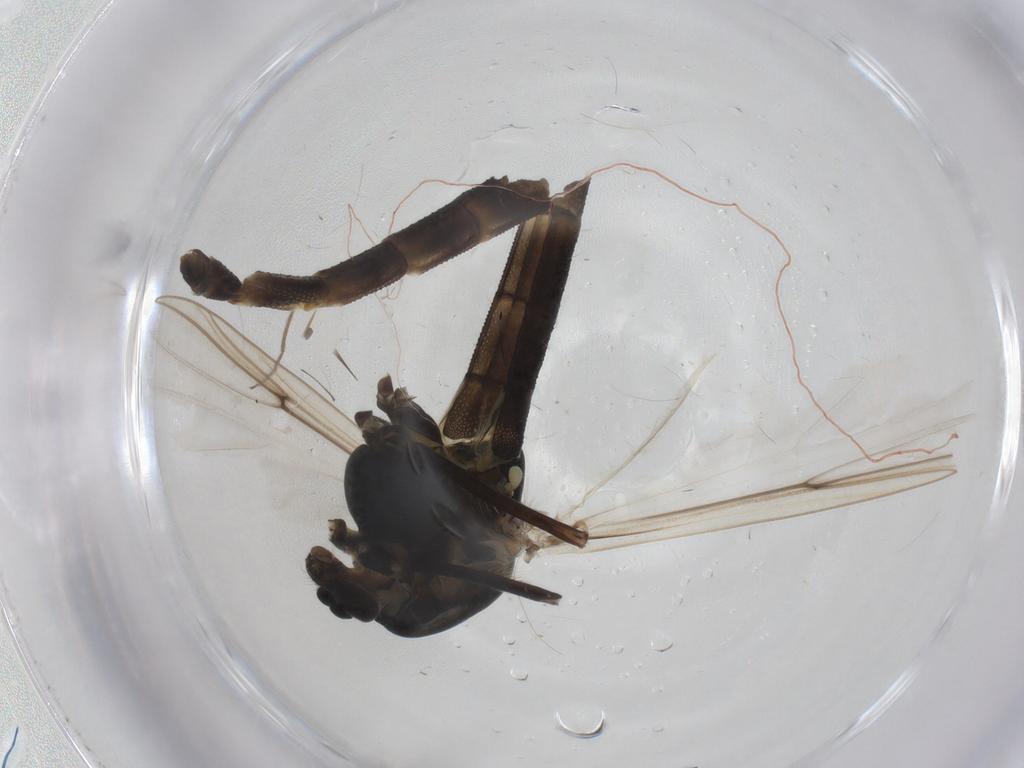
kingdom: Animalia
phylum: Arthropoda
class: Insecta
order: Diptera
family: Chironomidae
